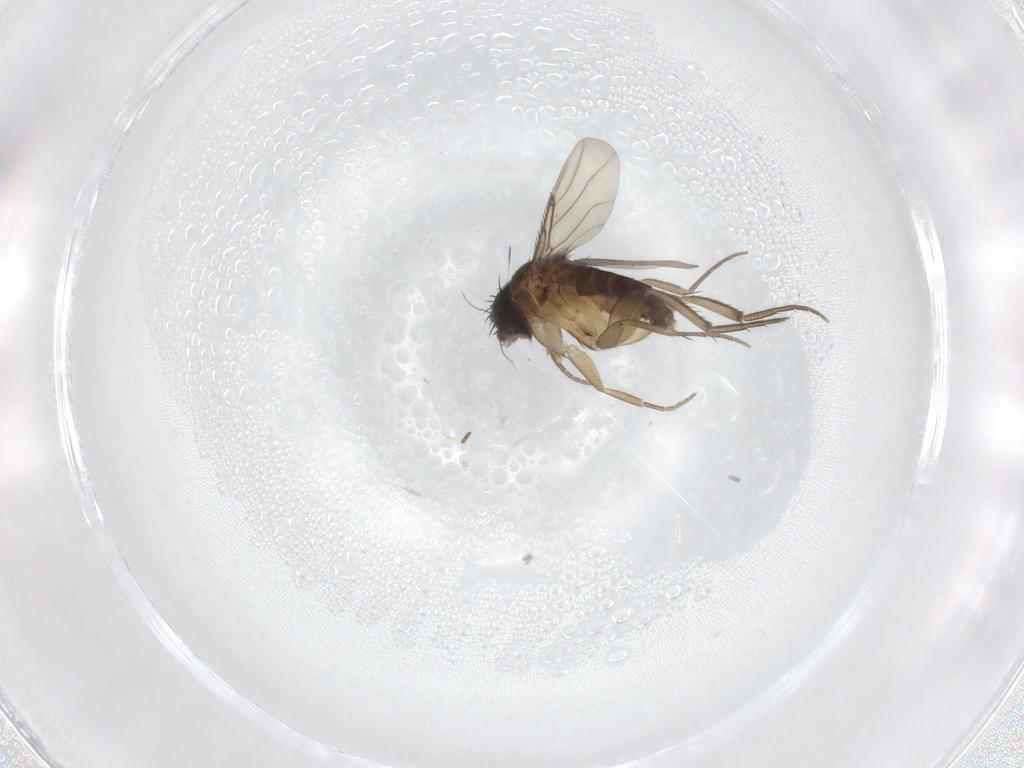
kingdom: Animalia
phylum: Arthropoda
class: Insecta
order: Diptera
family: Phoridae
